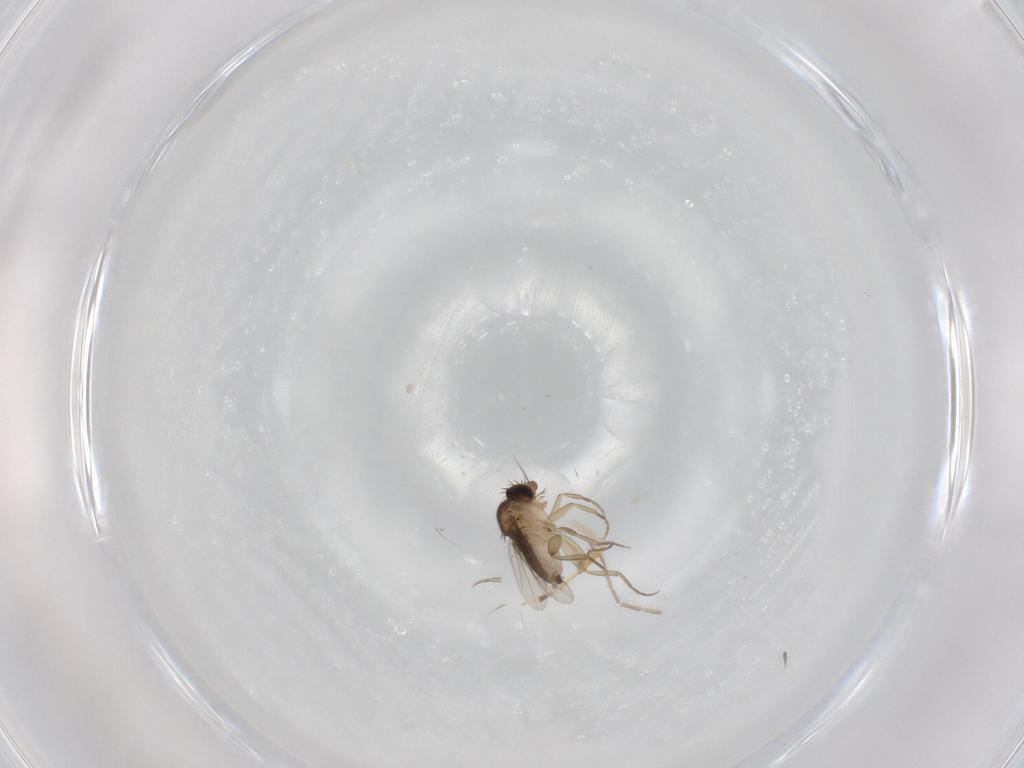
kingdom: Animalia
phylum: Arthropoda
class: Insecta
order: Diptera
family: Phoridae
